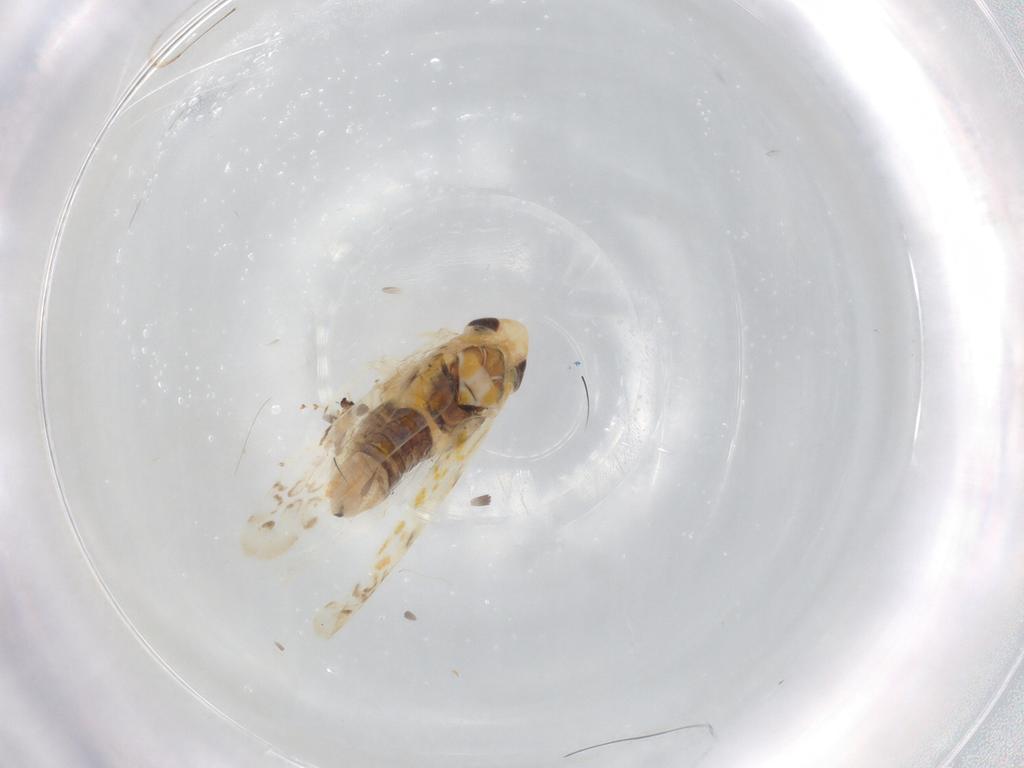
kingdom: Animalia
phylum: Arthropoda
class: Insecta
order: Hemiptera
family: Cicadellidae
